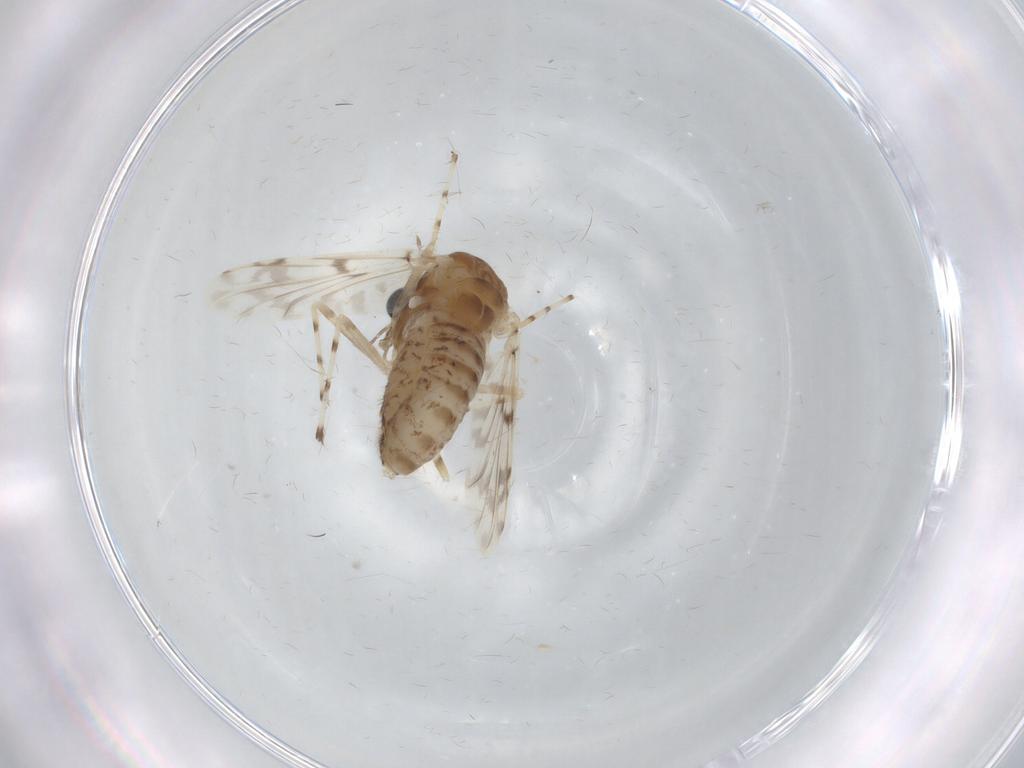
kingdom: Animalia
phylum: Arthropoda
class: Insecta
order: Diptera
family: Chironomidae
